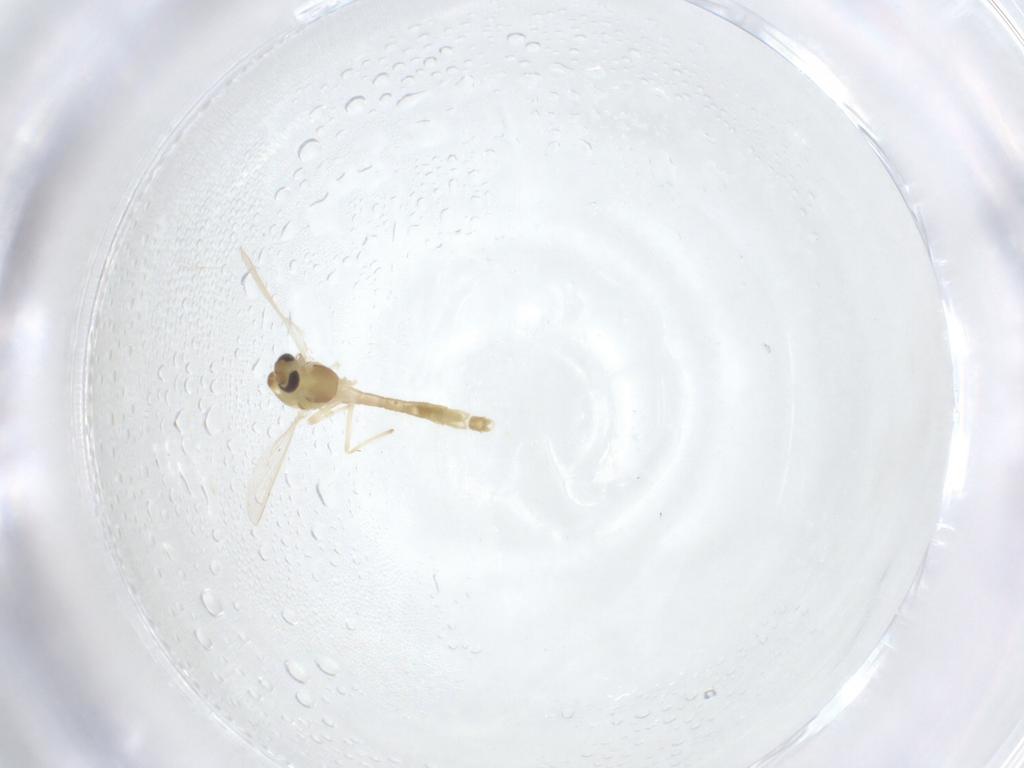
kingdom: Animalia
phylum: Arthropoda
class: Insecta
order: Diptera
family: Chironomidae
